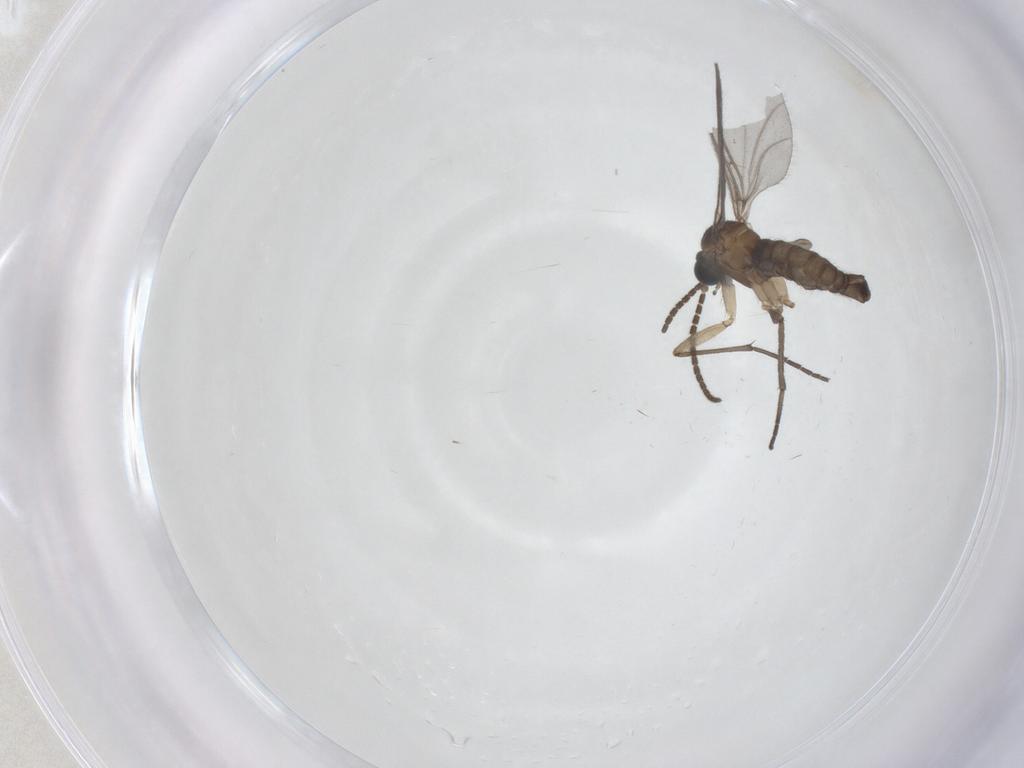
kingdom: Animalia
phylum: Arthropoda
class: Insecta
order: Diptera
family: Sciaridae
